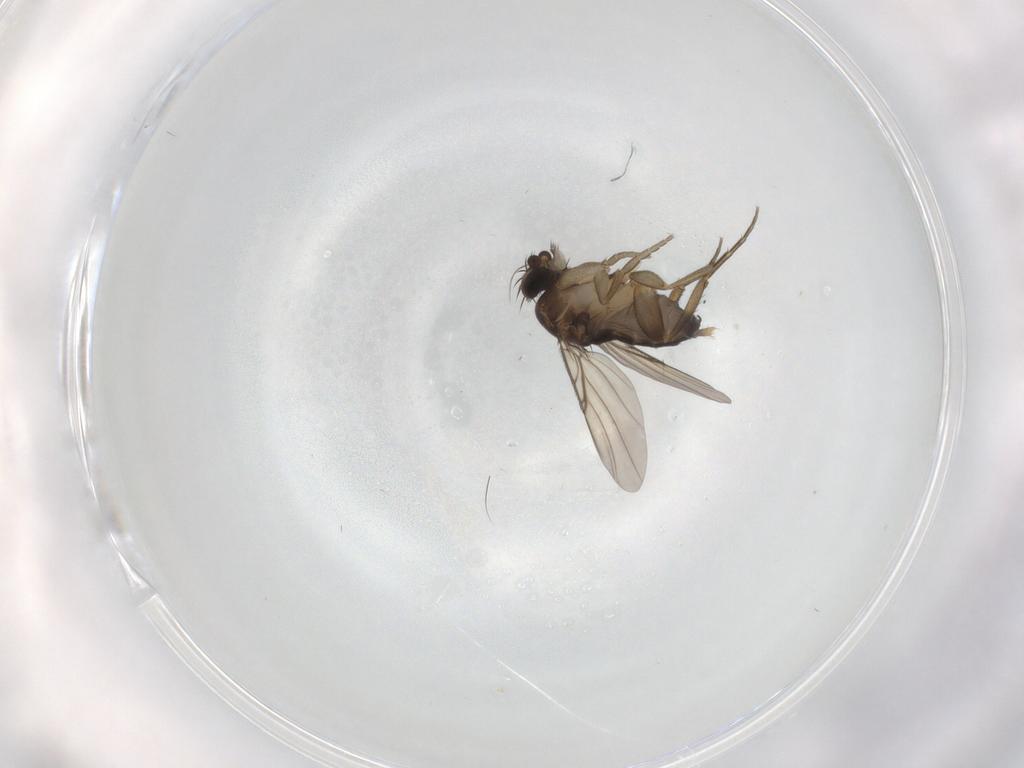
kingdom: Animalia
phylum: Arthropoda
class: Insecta
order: Diptera
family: Phoridae
